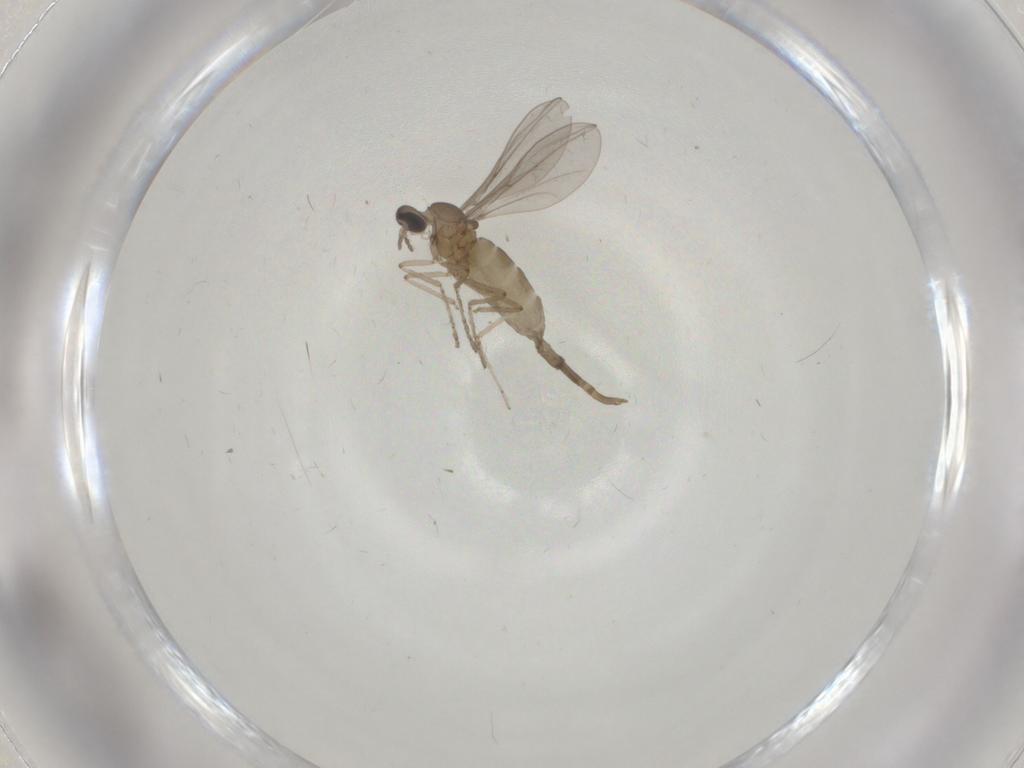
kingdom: Animalia
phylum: Arthropoda
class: Insecta
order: Diptera
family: Cecidomyiidae
